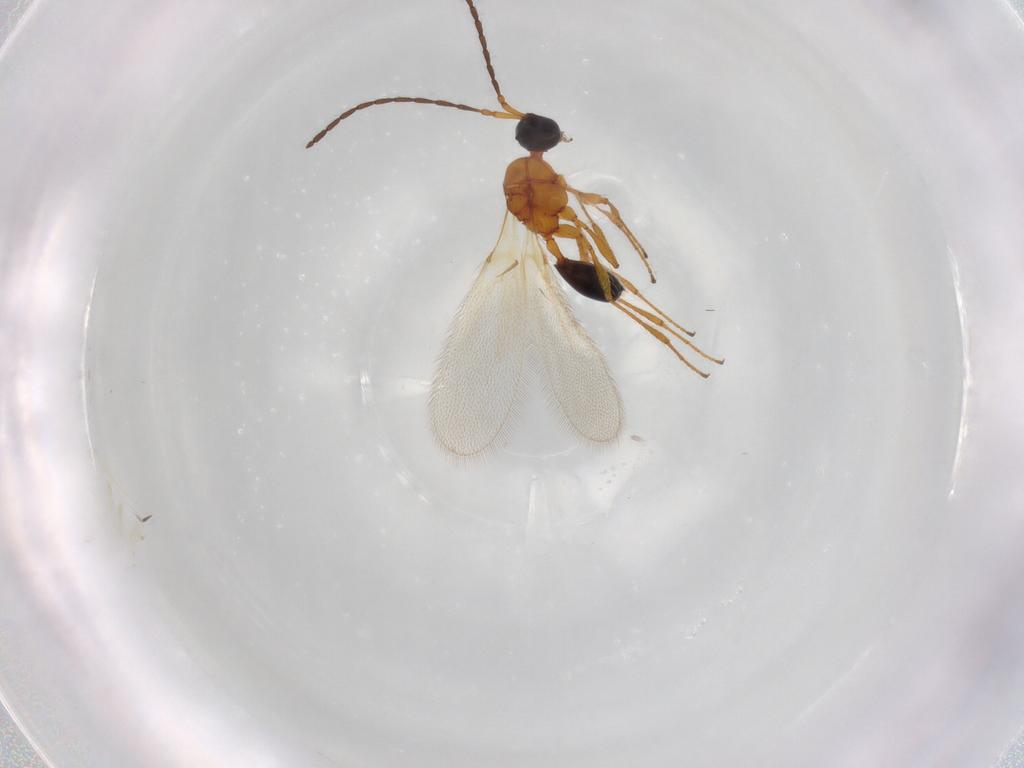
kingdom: Animalia
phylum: Arthropoda
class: Insecta
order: Hymenoptera
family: Diapriidae
